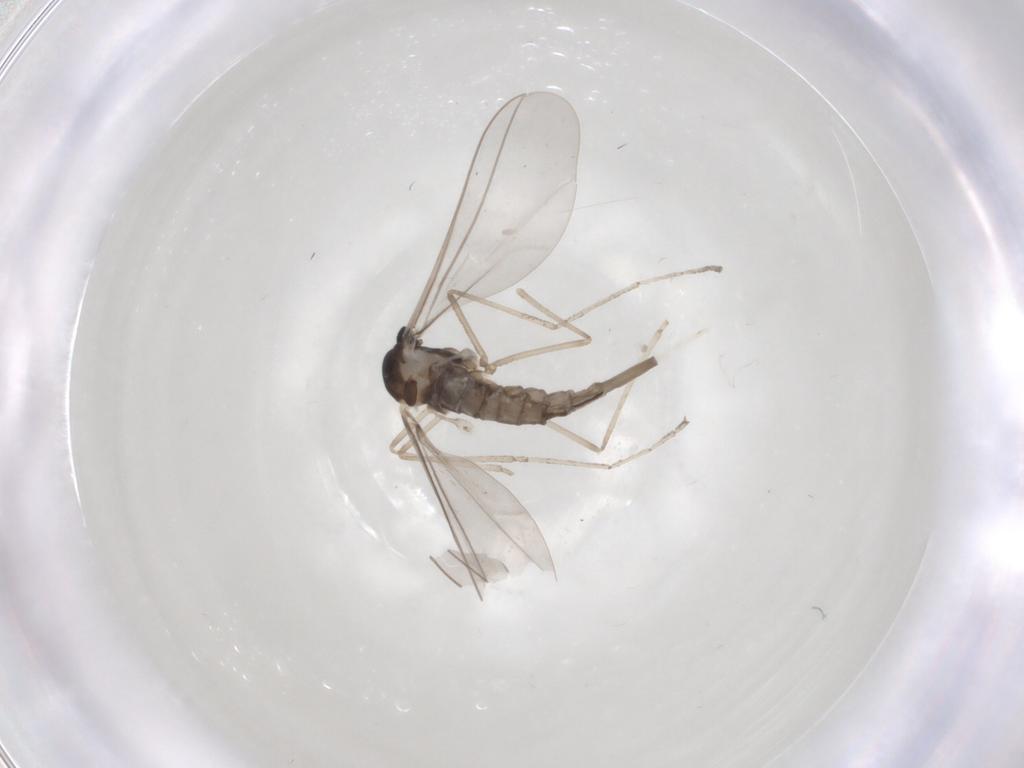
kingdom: Animalia
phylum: Arthropoda
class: Insecta
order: Diptera
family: Cecidomyiidae
